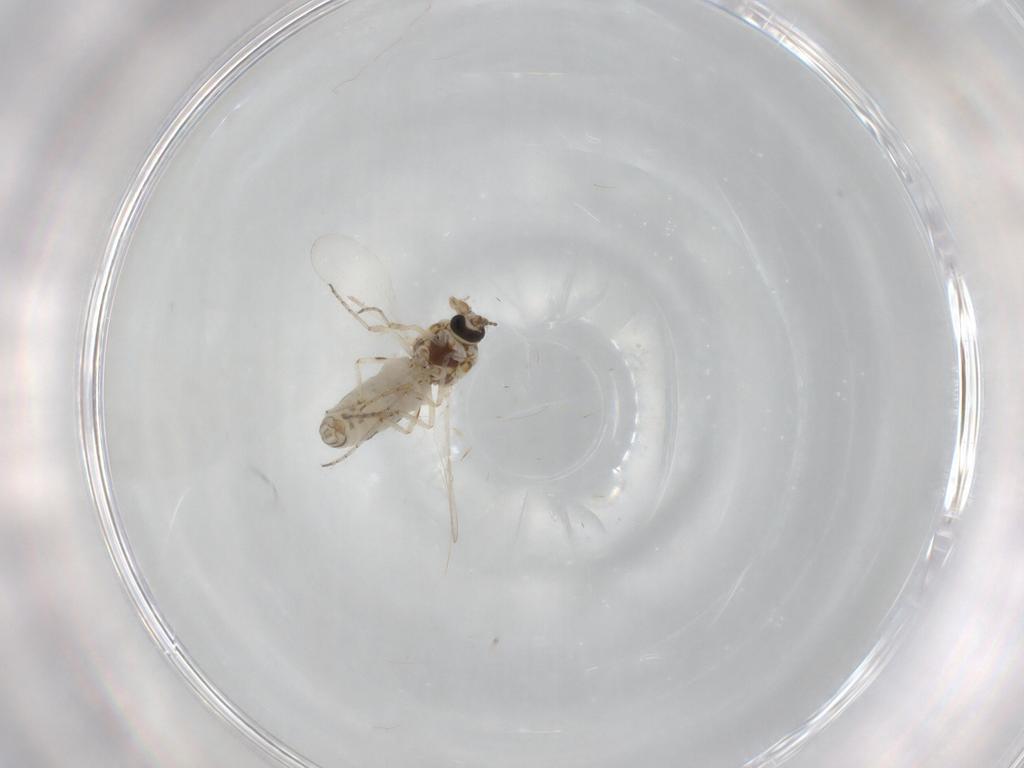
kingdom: Animalia
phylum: Arthropoda
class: Insecta
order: Diptera
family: Ceratopogonidae
